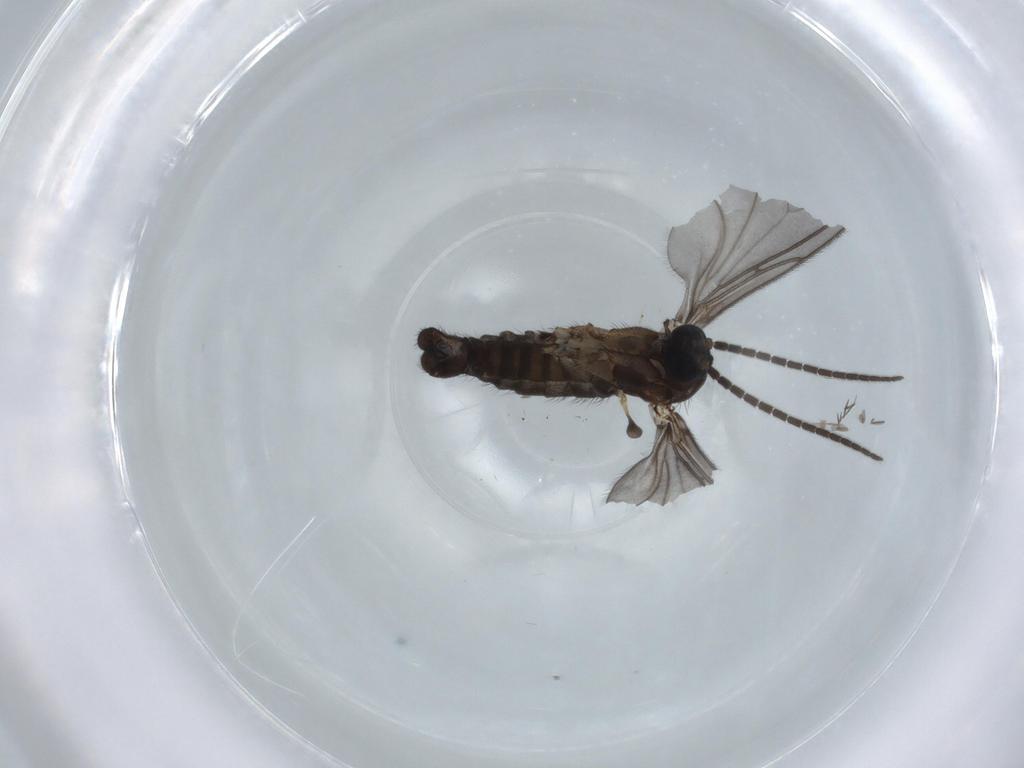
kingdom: Animalia
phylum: Arthropoda
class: Insecta
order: Diptera
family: Sciaridae
